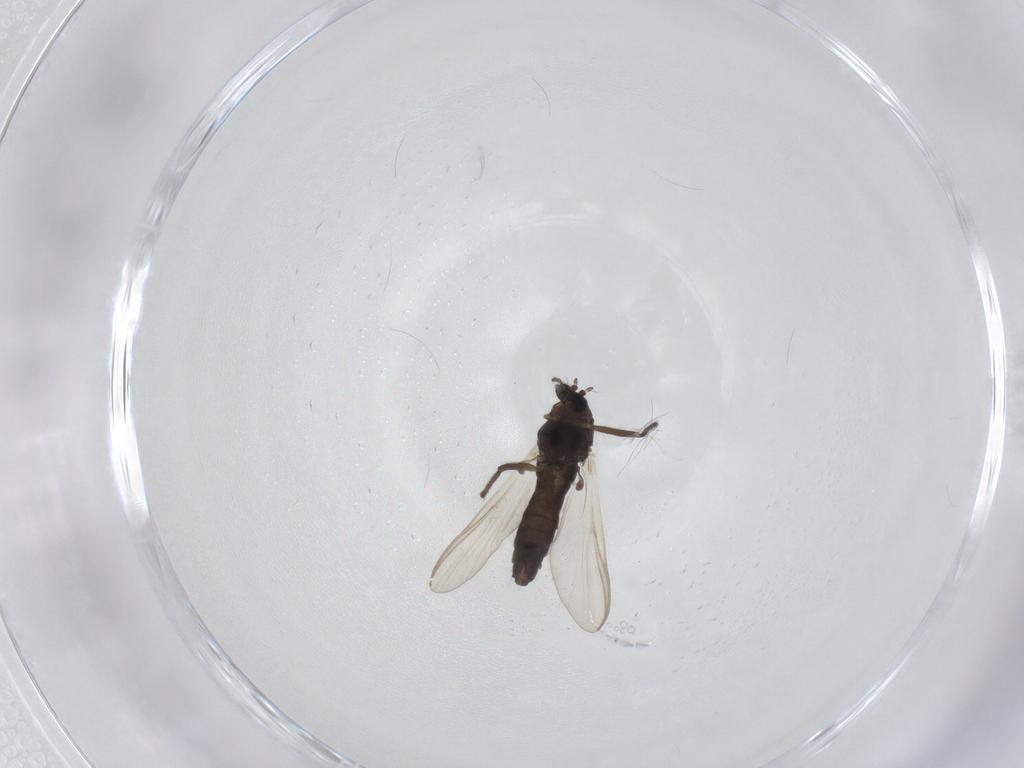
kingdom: Animalia
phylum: Arthropoda
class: Insecta
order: Diptera
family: Chironomidae
